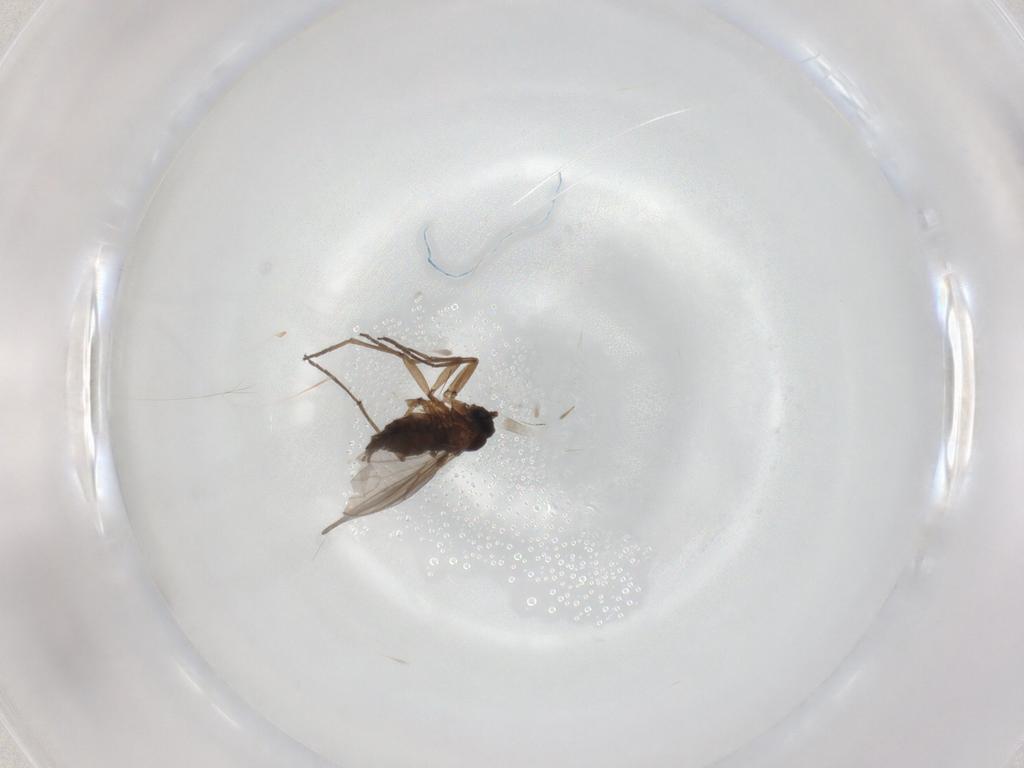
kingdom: Animalia
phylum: Arthropoda
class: Insecta
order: Diptera
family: Sciaridae
